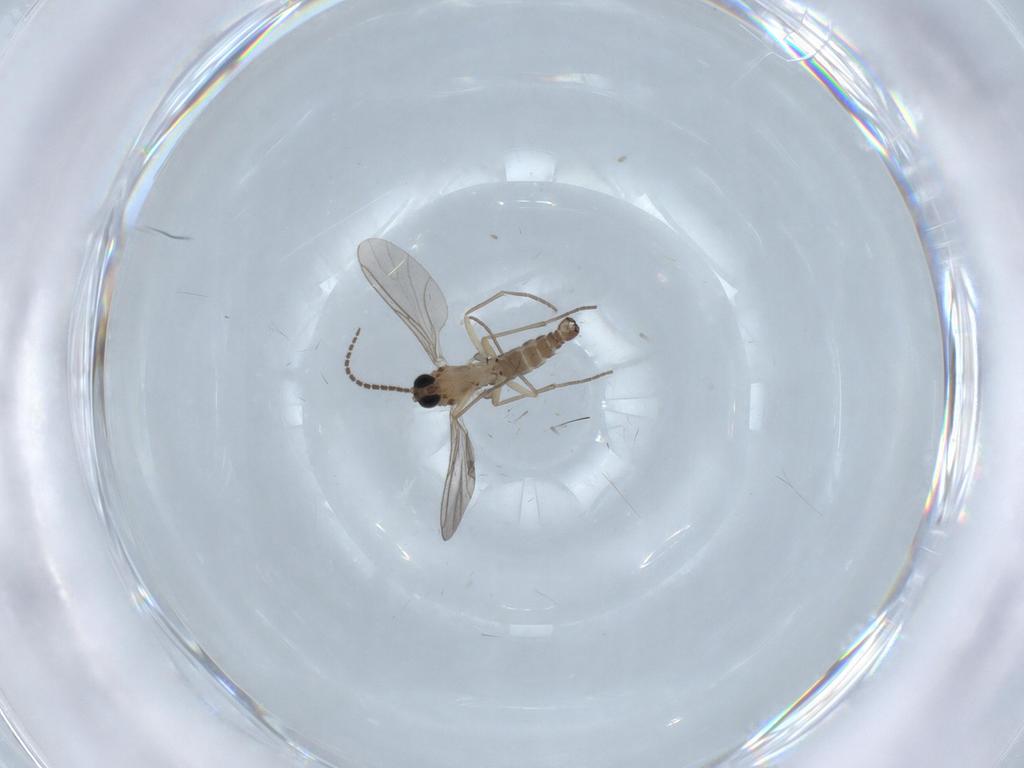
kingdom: Animalia
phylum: Arthropoda
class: Insecta
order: Diptera
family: Sciaridae
